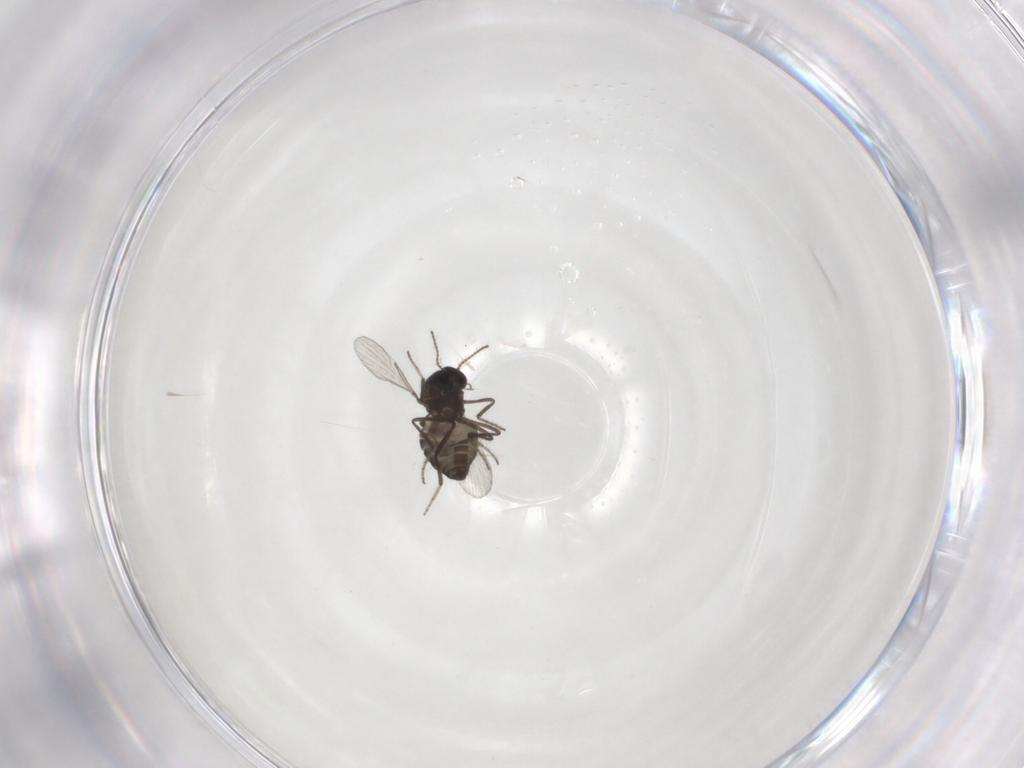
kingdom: Animalia
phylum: Arthropoda
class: Insecta
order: Diptera
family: Ceratopogonidae
